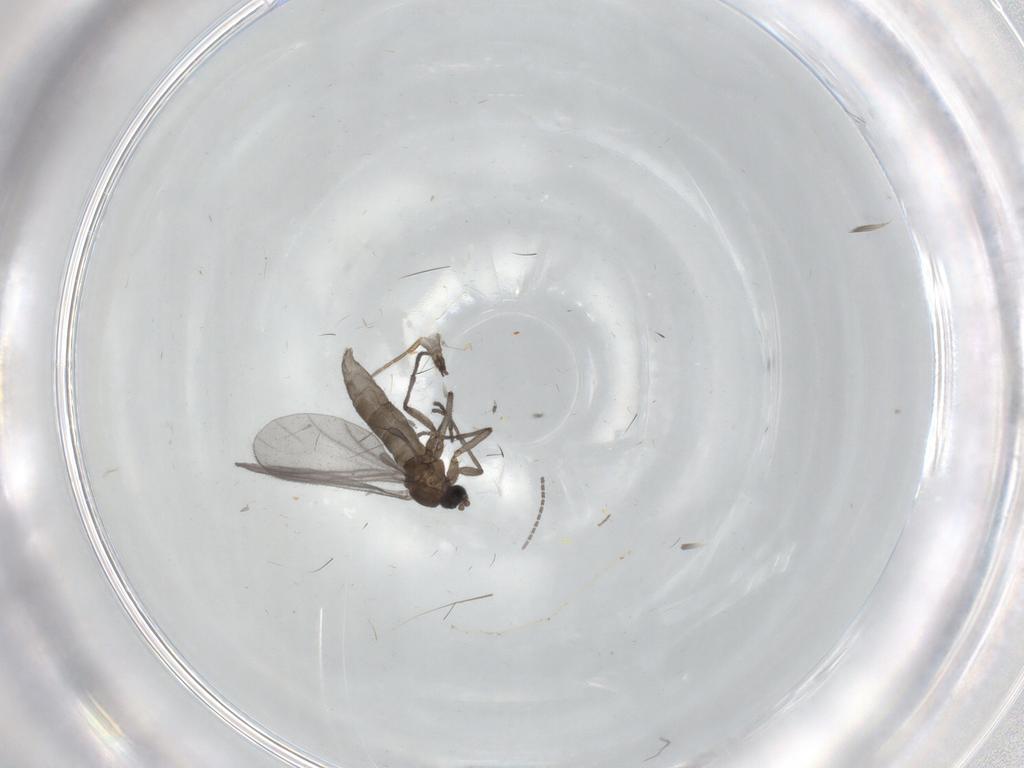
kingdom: Animalia
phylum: Arthropoda
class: Insecta
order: Diptera
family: Sciaridae
